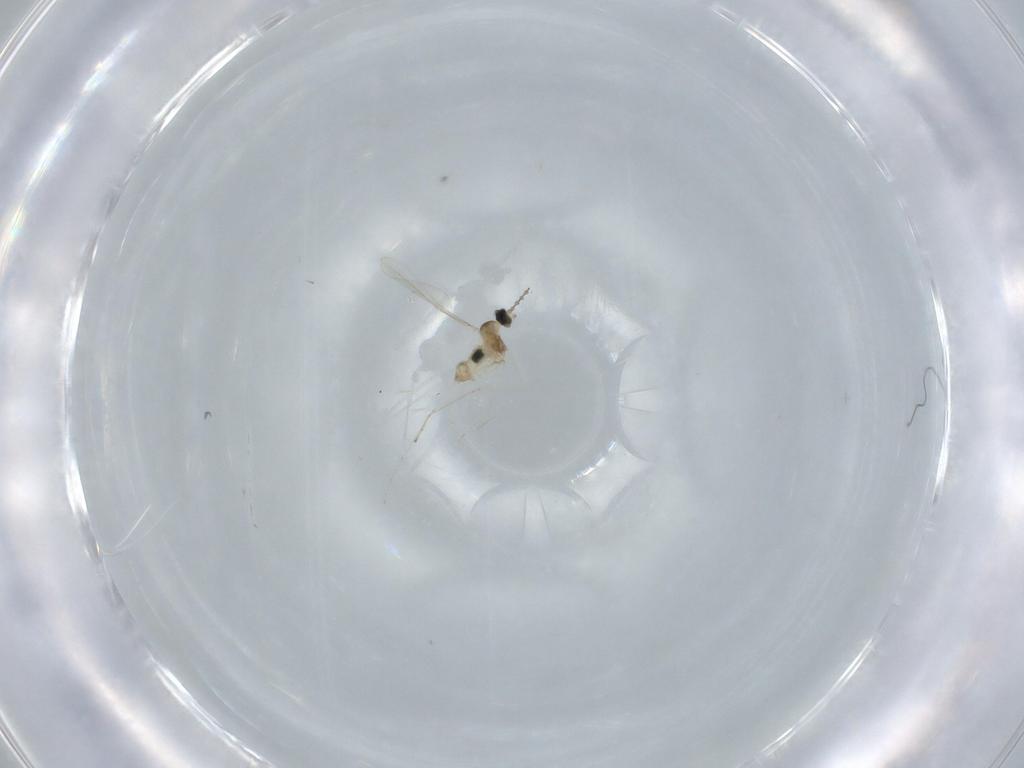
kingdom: Animalia
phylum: Arthropoda
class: Insecta
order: Diptera
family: Cecidomyiidae
